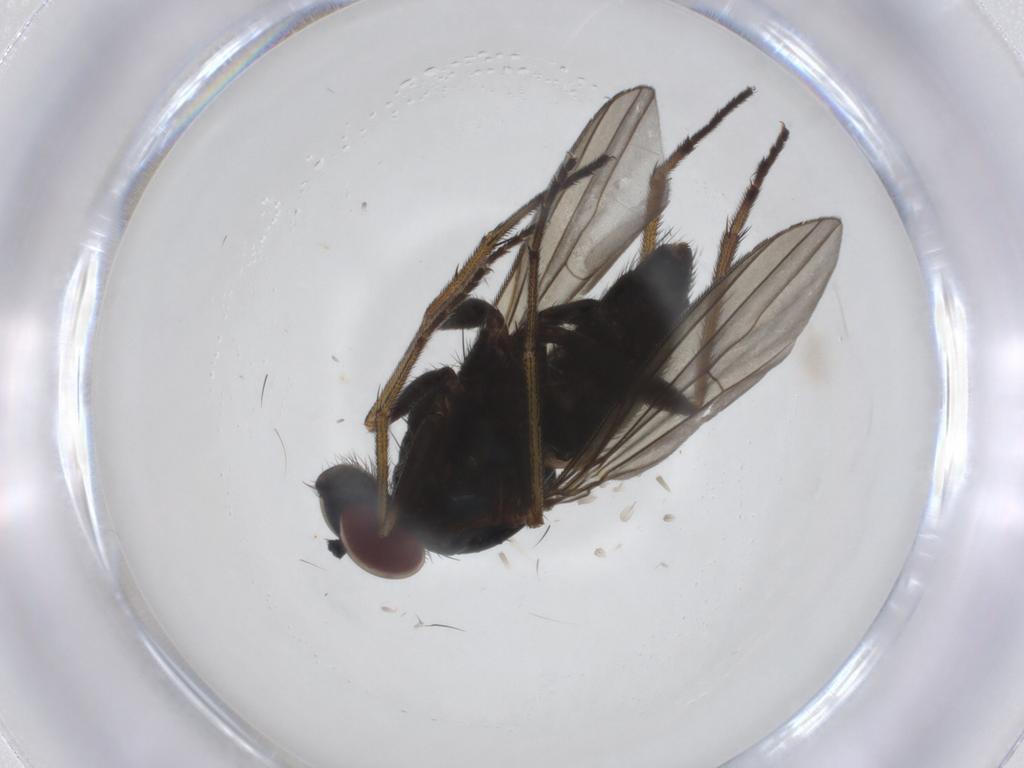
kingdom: Animalia
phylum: Arthropoda
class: Insecta
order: Diptera
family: Dolichopodidae
